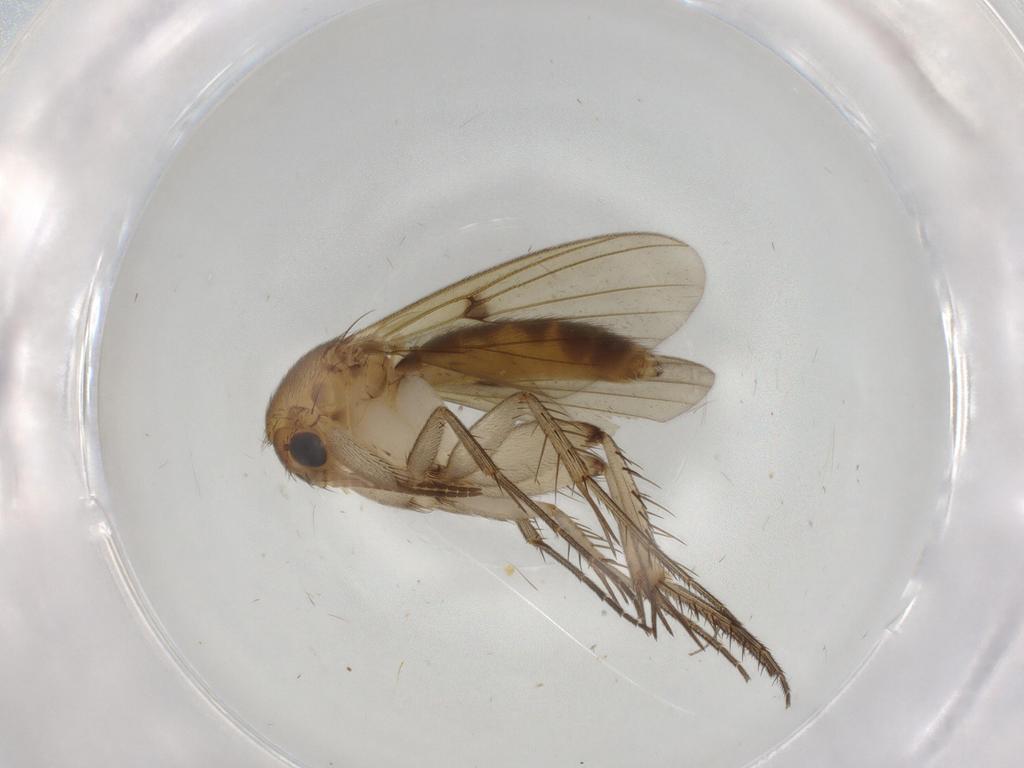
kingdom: Animalia
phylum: Arthropoda
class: Insecta
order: Diptera
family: Mycetophilidae
